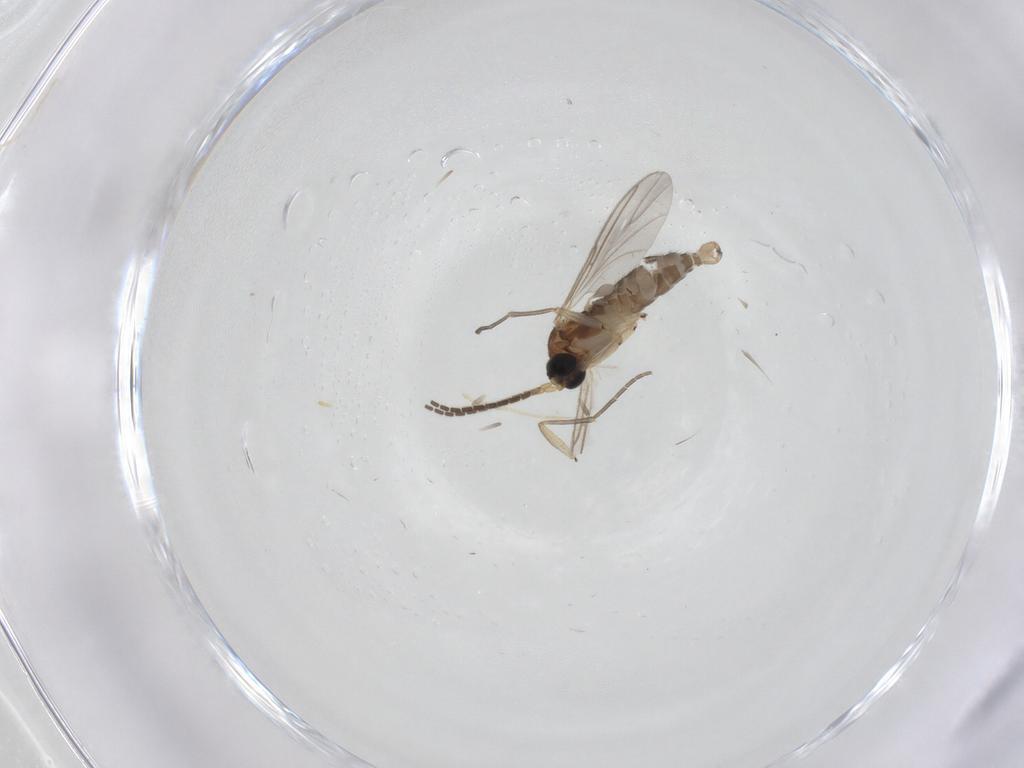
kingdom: Animalia
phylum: Arthropoda
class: Insecta
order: Diptera
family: Sciaridae
